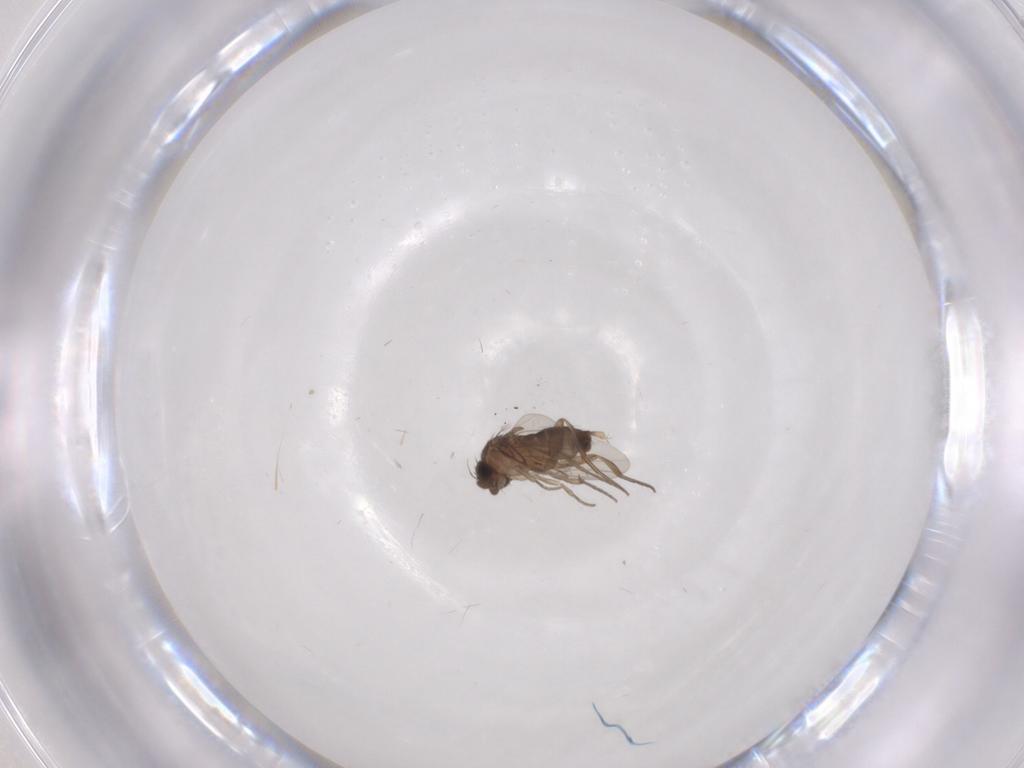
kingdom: Animalia
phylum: Arthropoda
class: Insecta
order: Diptera
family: Phoridae
